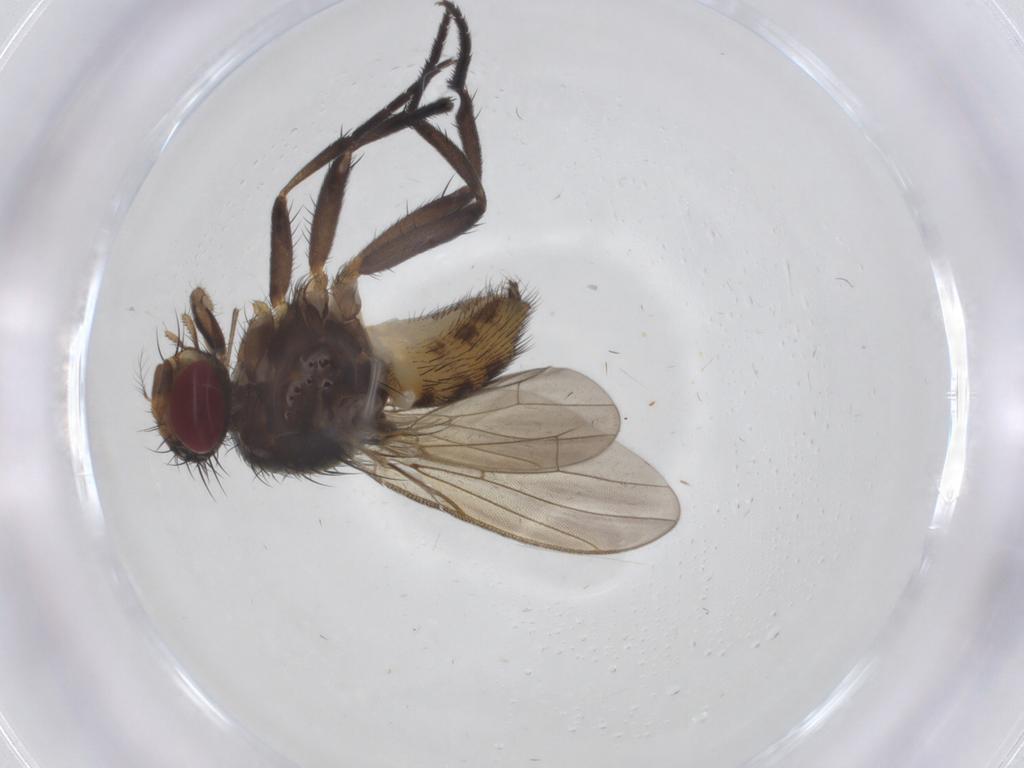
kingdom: Animalia
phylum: Arthropoda
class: Insecta
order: Diptera
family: Anthomyiidae
